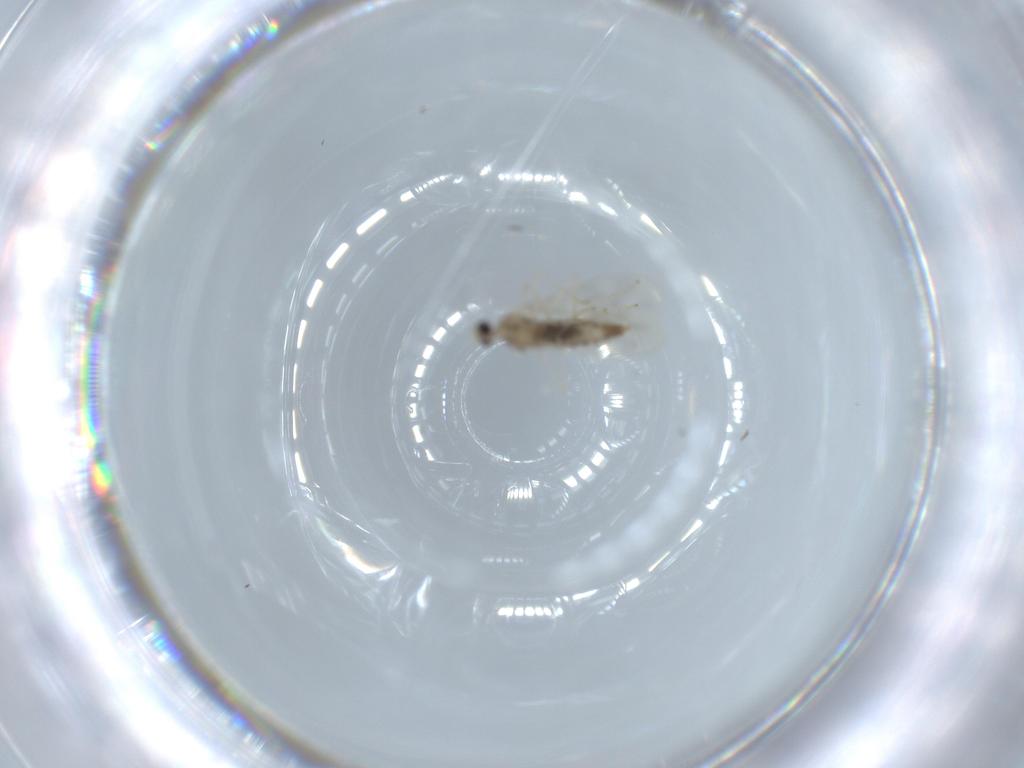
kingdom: Animalia
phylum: Arthropoda
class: Insecta
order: Diptera
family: Cecidomyiidae
